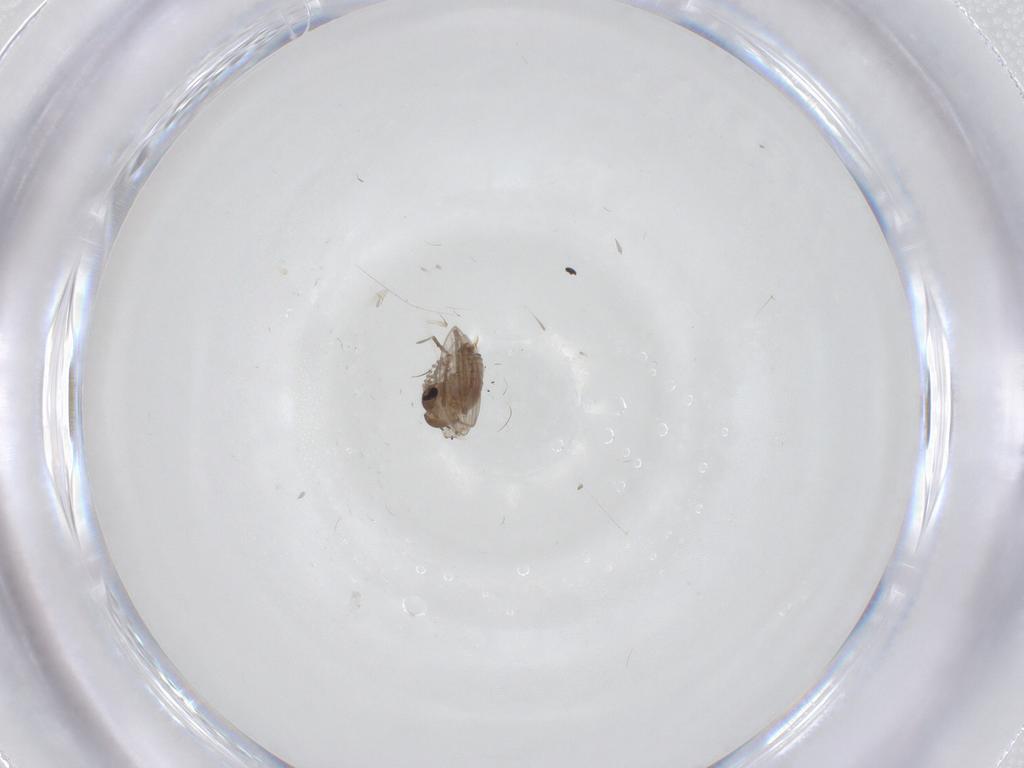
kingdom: Animalia
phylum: Arthropoda
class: Insecta
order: Diptera
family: Psychodidae
